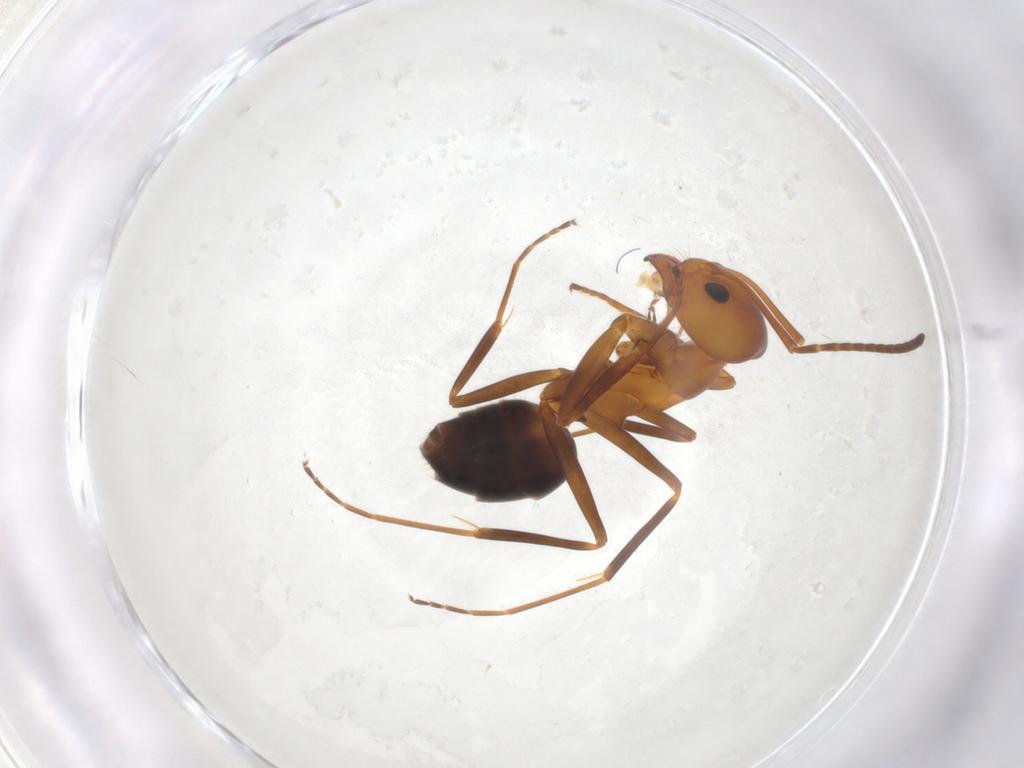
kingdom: Animalia
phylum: Arthropoda
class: Insecta
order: Hymenoptera
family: Formicidae
